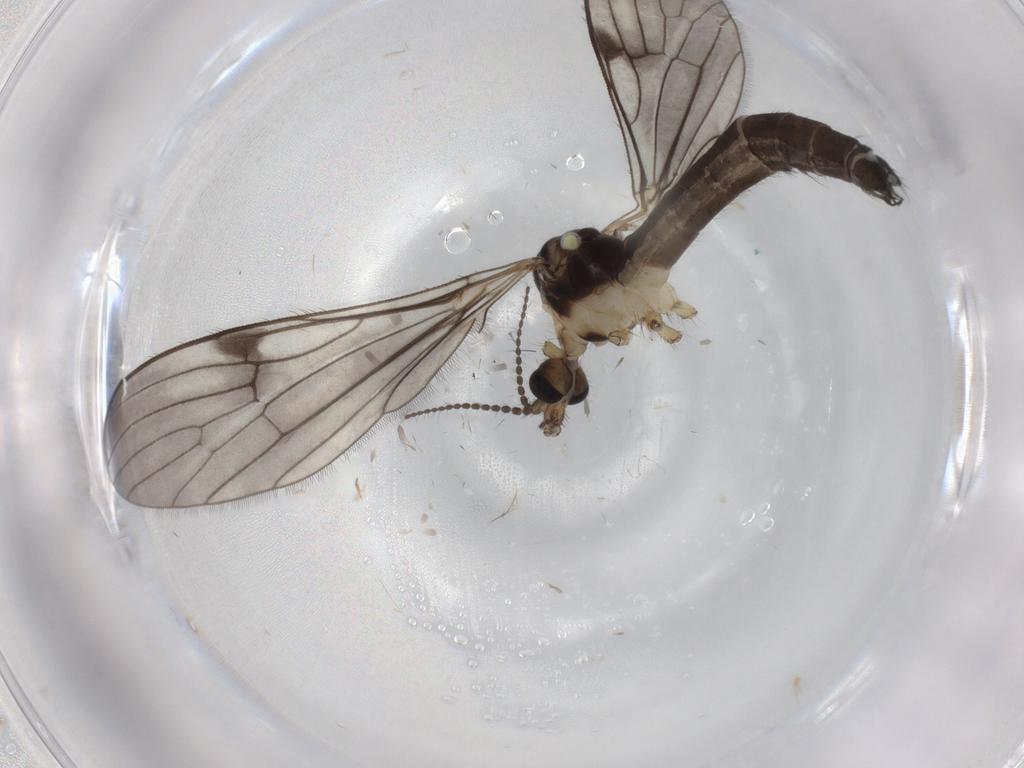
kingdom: Animalia
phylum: Arthropoda
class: Insecta
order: Diptera
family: Limoniidae
